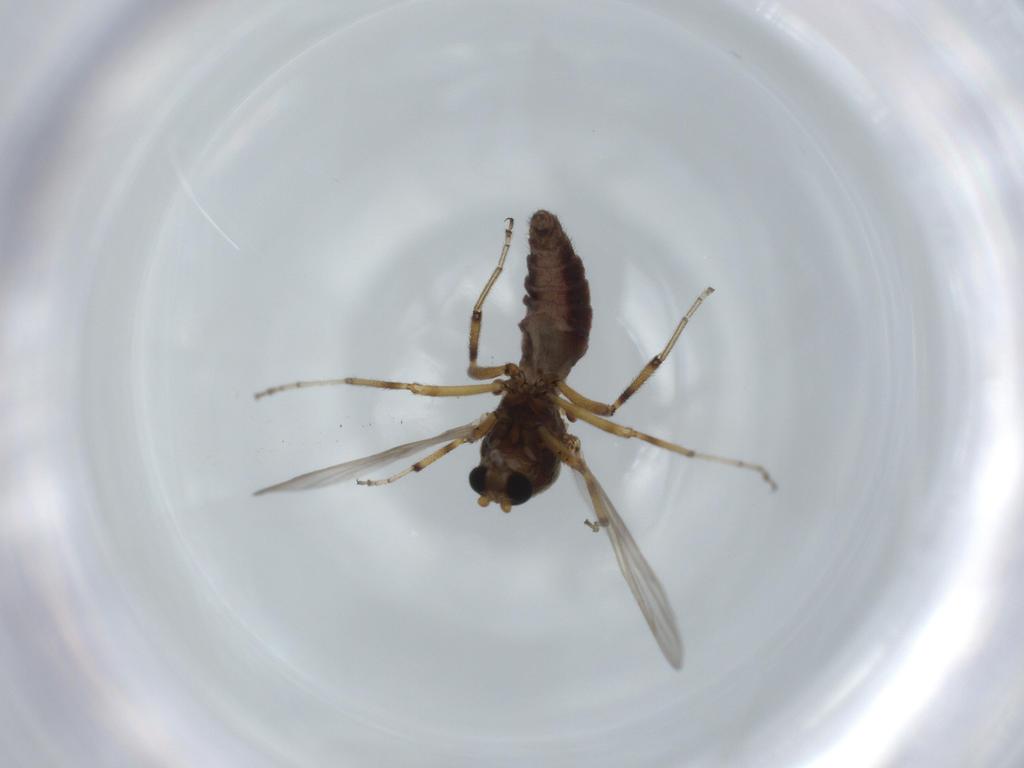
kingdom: Animalia
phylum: Arthropoda
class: Insecta
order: Diptera
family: Ceratopogonidae
